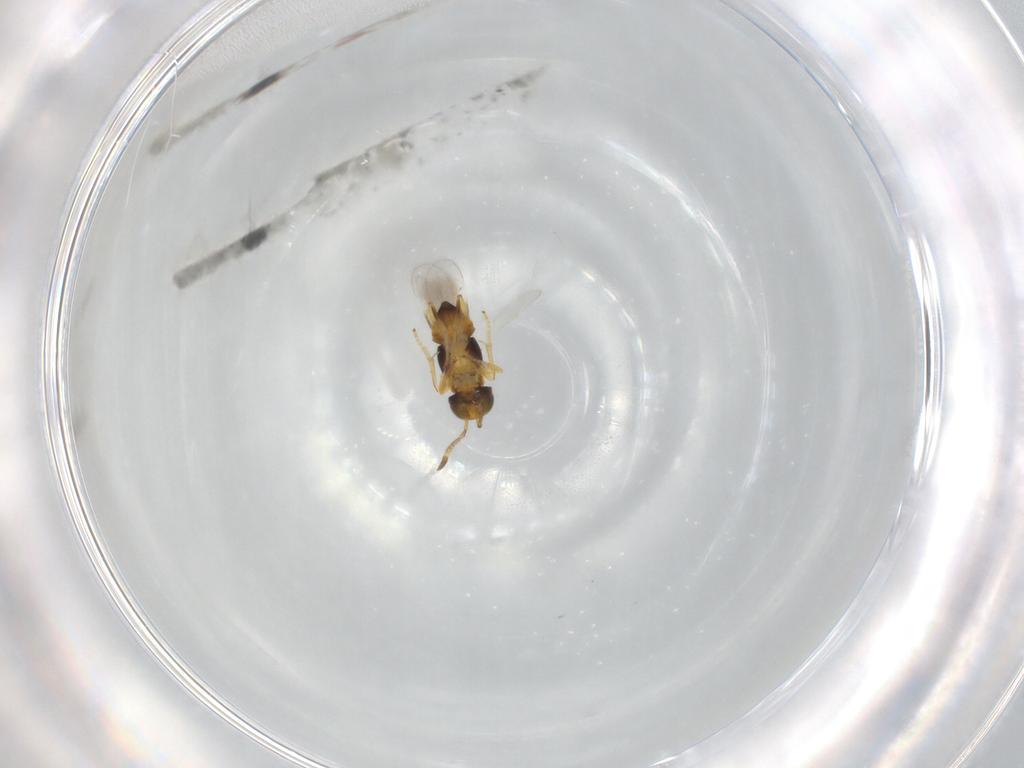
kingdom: Animalia
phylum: Arthropoda
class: Insecta
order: Hymenoptera
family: Encyrtidae
